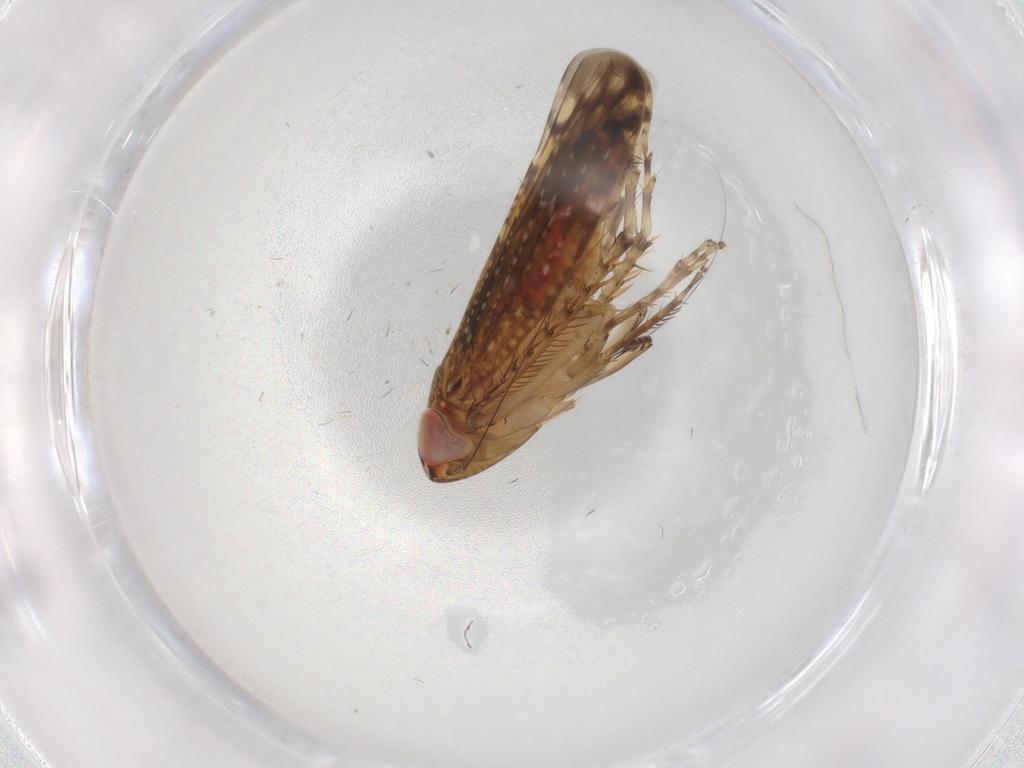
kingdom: Animalia
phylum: Arthropoda
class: Insecta
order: Hemiptera
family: Cicadellidae
